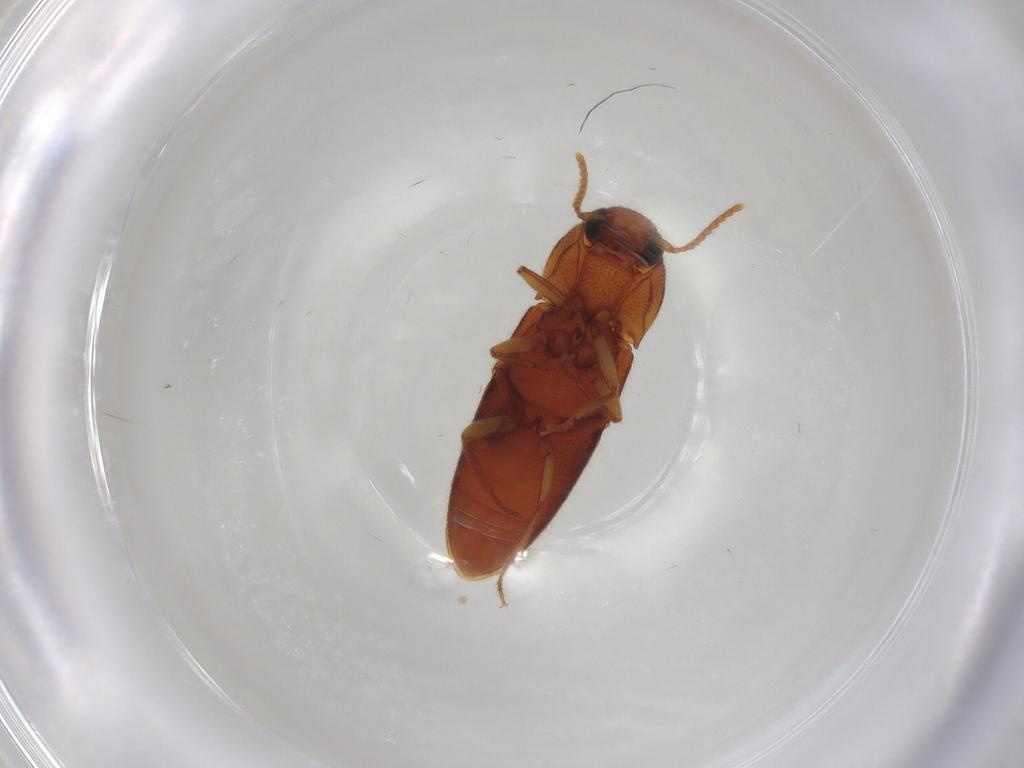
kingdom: Animalia
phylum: Arthropoda
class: Insecta
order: Coleoptera
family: Elateridae
